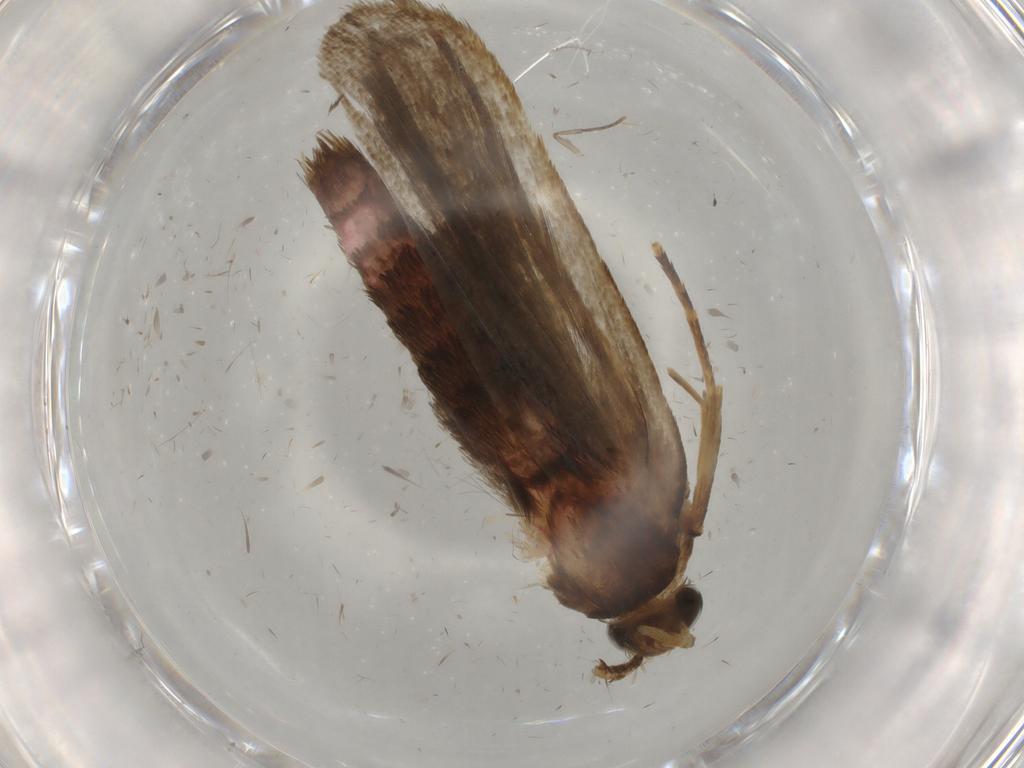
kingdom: Animalia
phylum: Arthropoda
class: Insecta
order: Lepidoptera
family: Autostichidae
